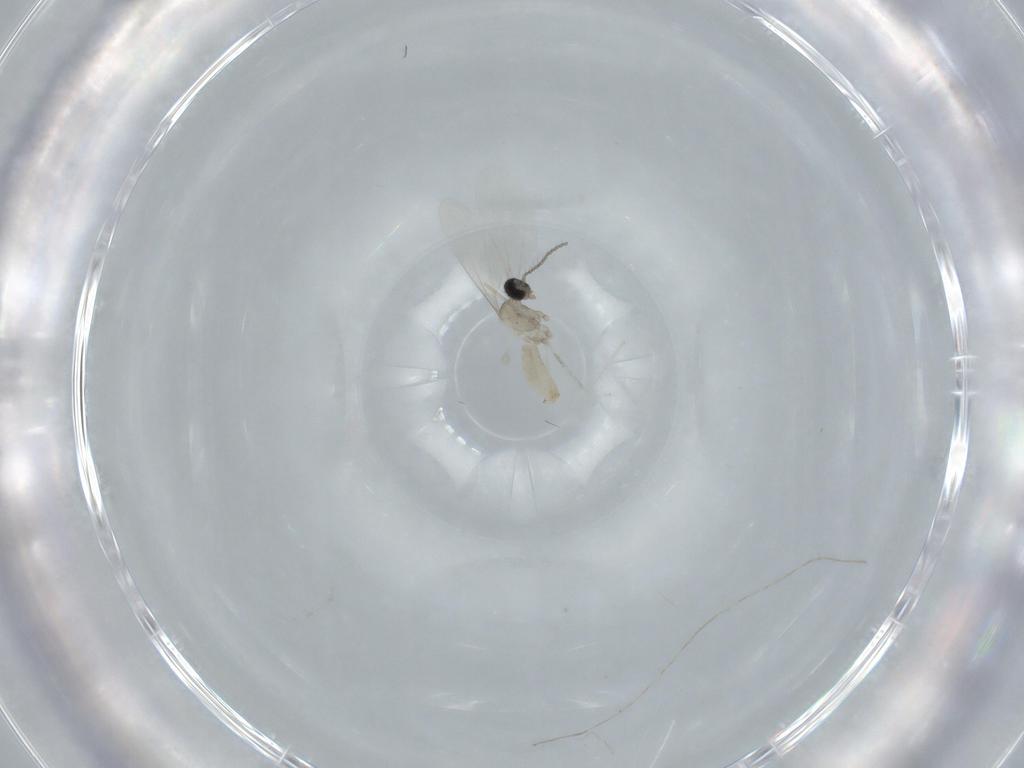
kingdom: Animalia
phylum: Arthropoda
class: Insecta
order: Diptera
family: Cecidomyiidae
